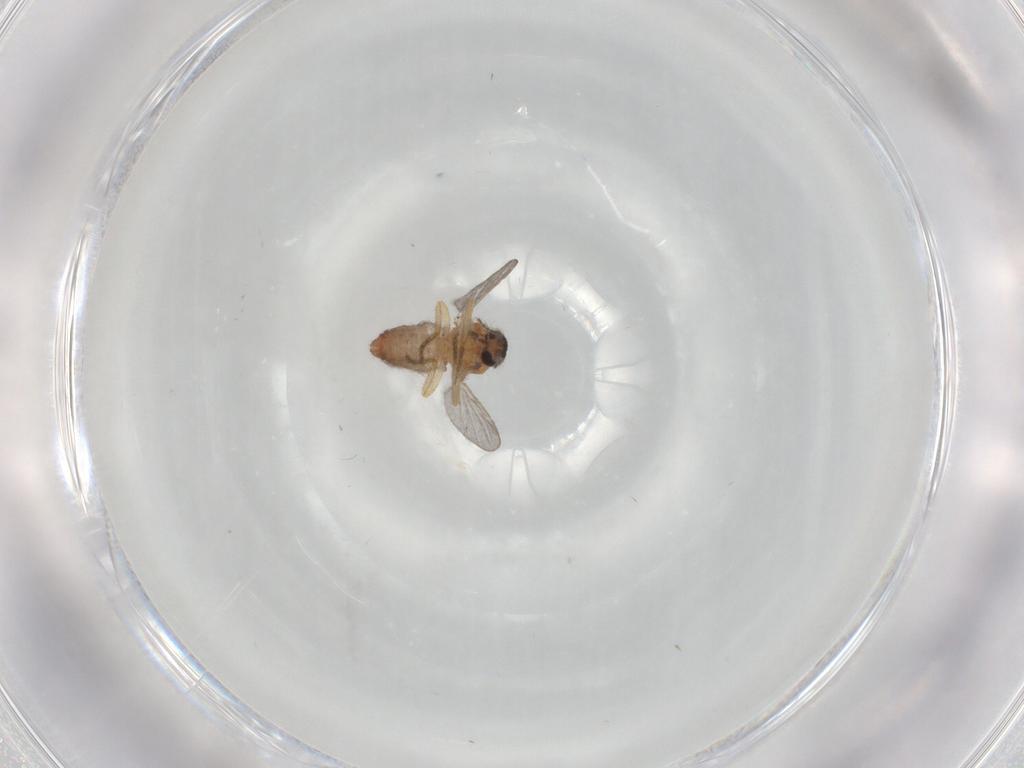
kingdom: Animalia
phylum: Arthropoda
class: Insecta
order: Diptera
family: Ceratopogonidae
